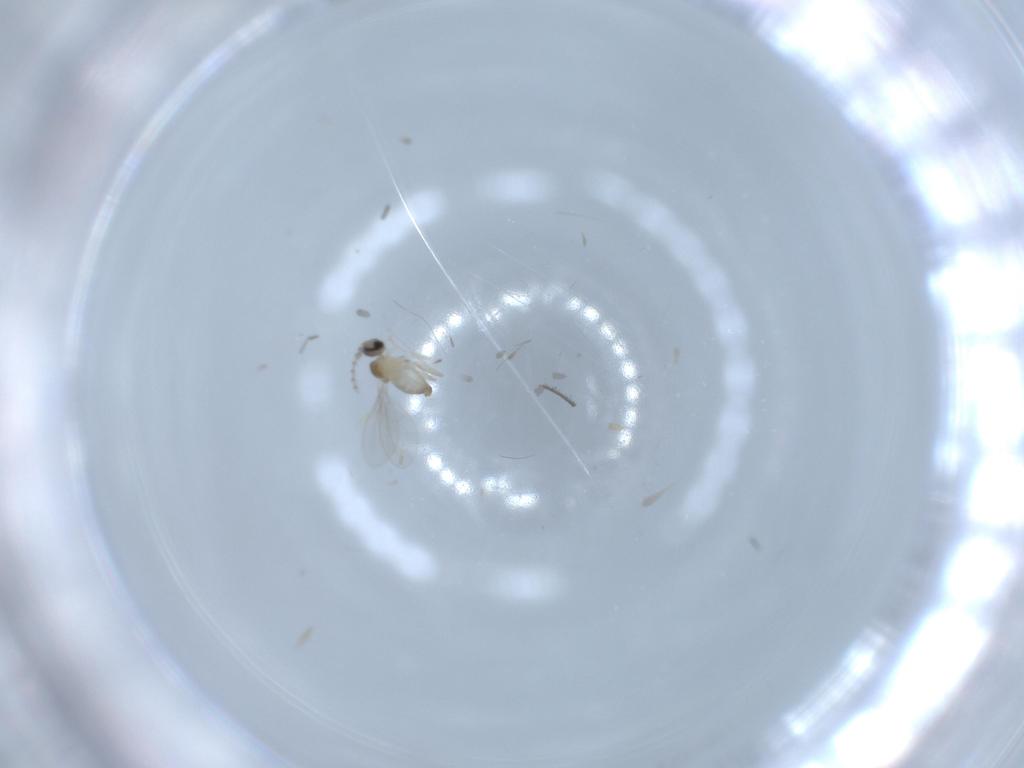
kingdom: Animalia
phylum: Arthropoda
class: Insecta
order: Diptera
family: Cecidomyiidae
